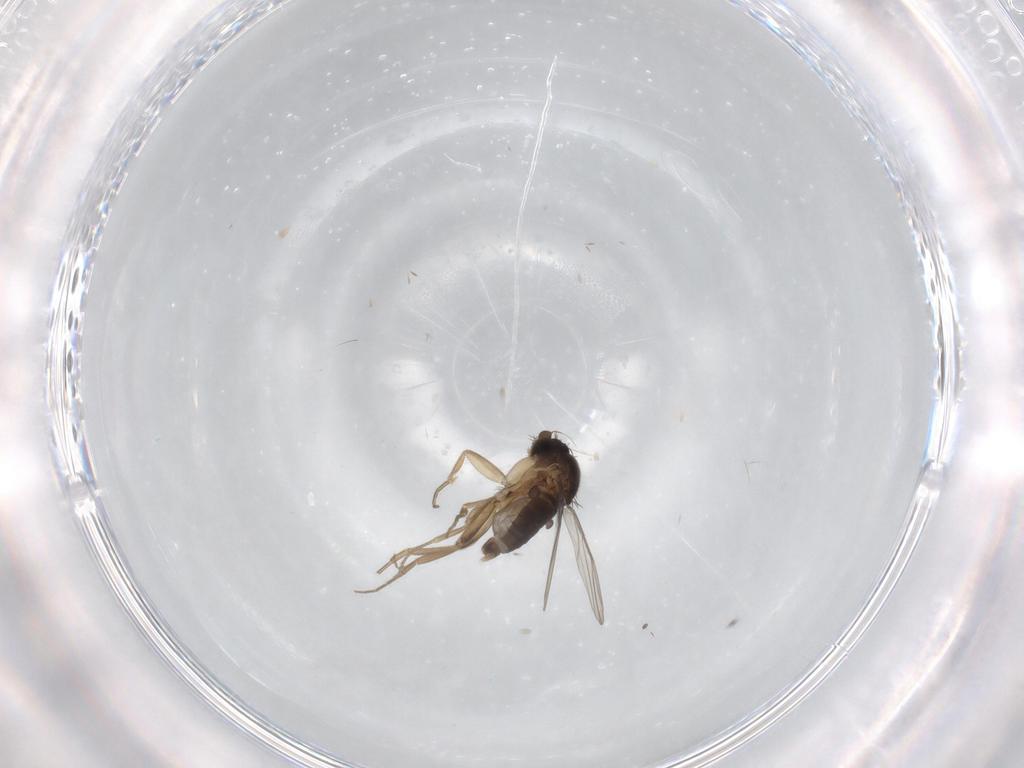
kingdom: Animalia
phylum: Arthropoda
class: Insecta
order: Diptera
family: Phoridae
